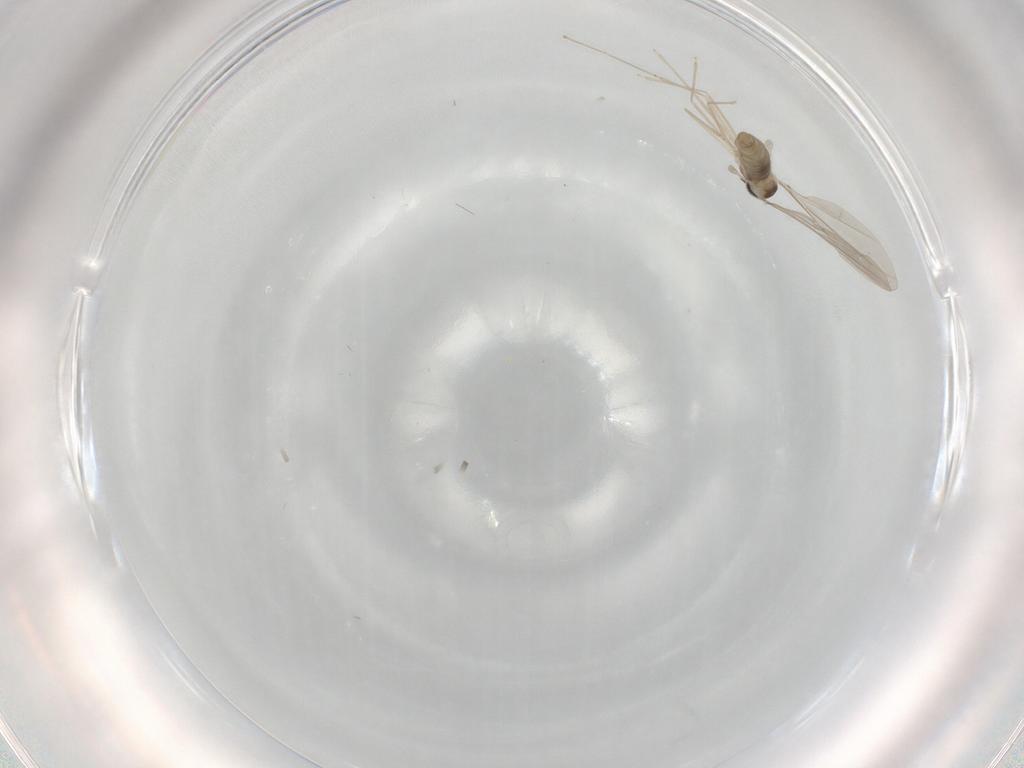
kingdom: Animalia
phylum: Arthropoda
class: Insecta
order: Diptera
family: Cecidomyiidae
